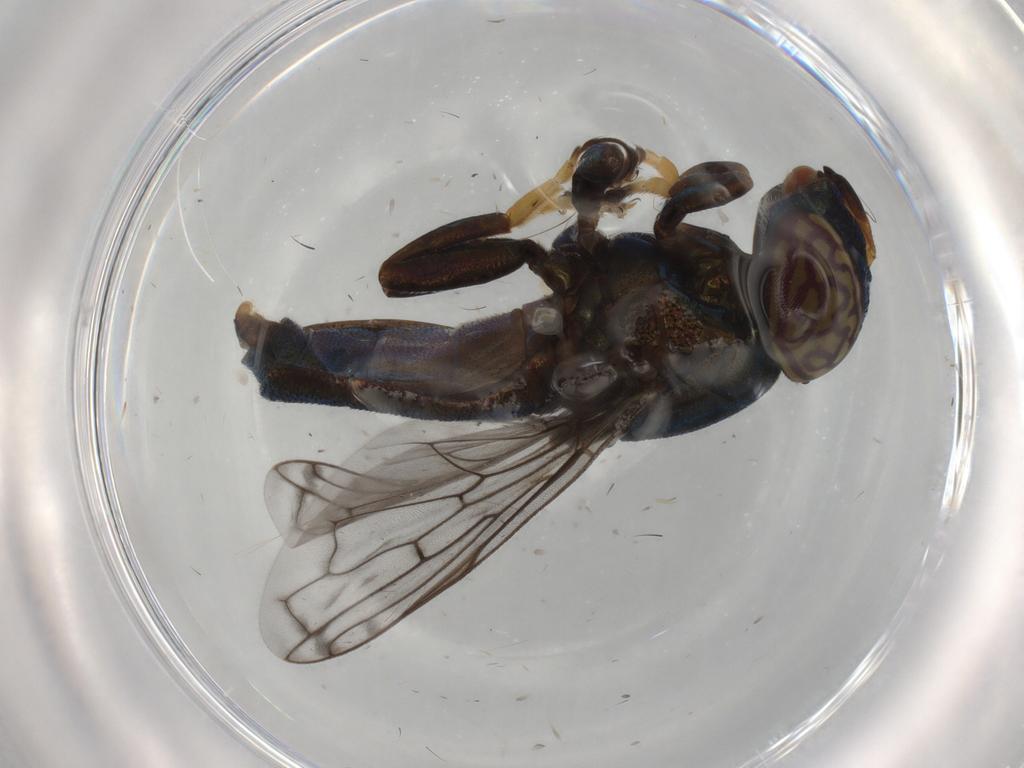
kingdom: Animalia
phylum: Arthropoda
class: Insecta
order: Diptera
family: Syrphidae
